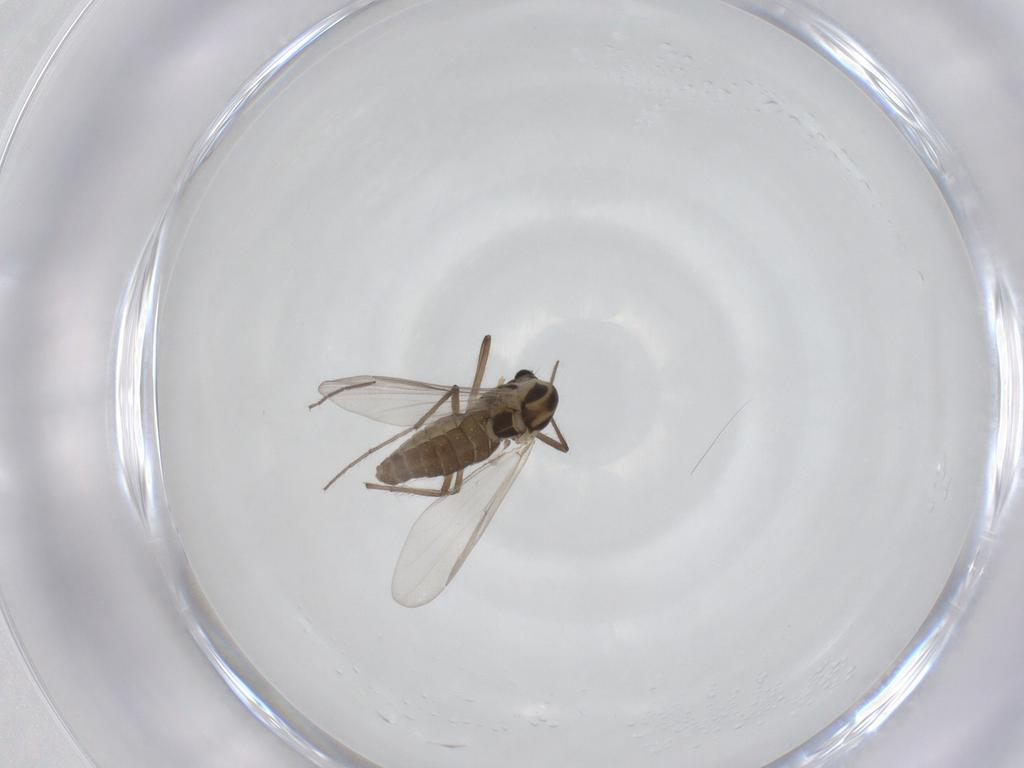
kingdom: Animalia
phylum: Arthropoda
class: Insecta
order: Diptera
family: Chironomidae
